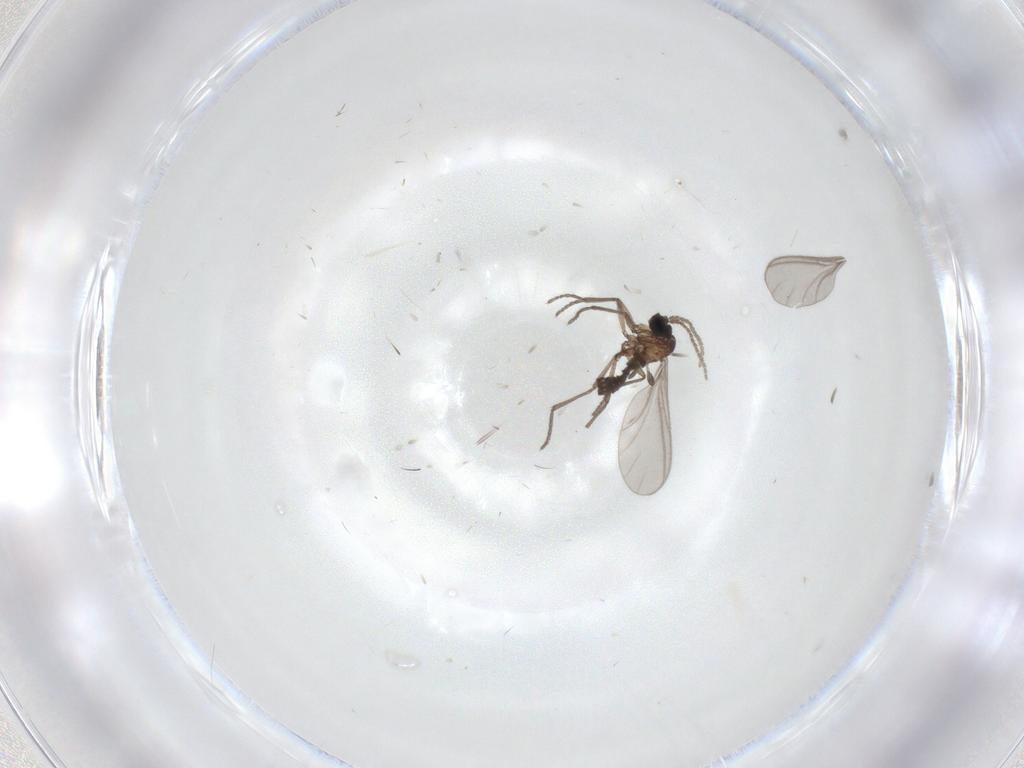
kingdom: Animalia
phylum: Arthropoda
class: Insecta
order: Diptera
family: Sciaridae
